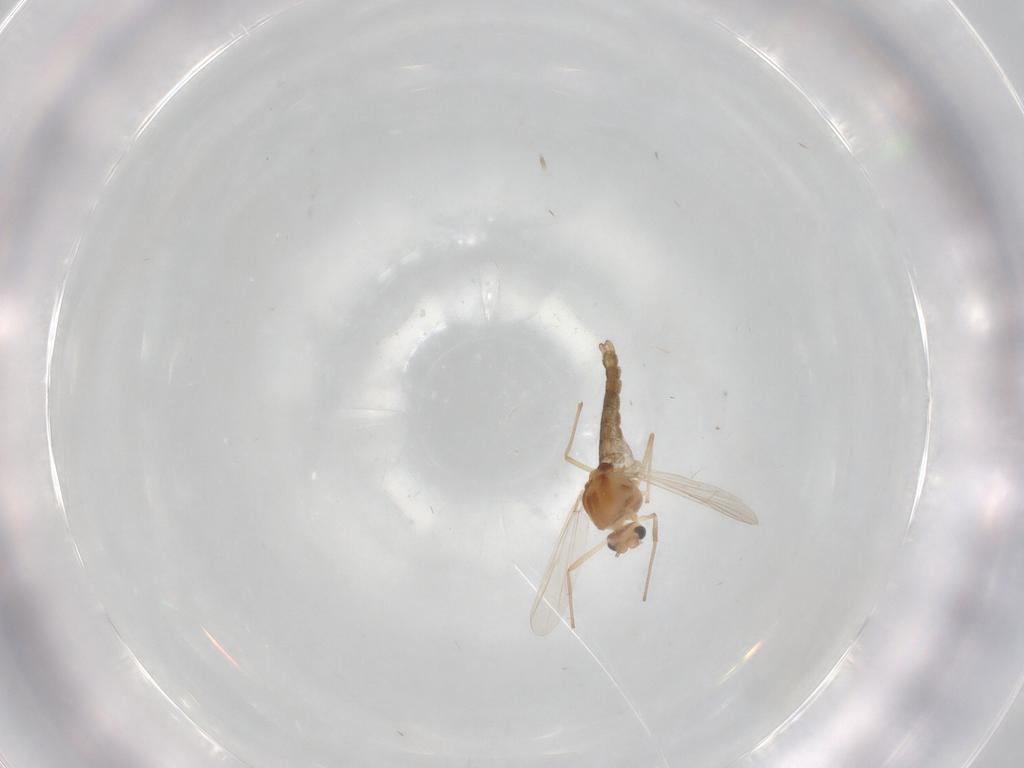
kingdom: Animalia
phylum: Arthropoda
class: Insecta
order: Diptera
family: Chironomidae
